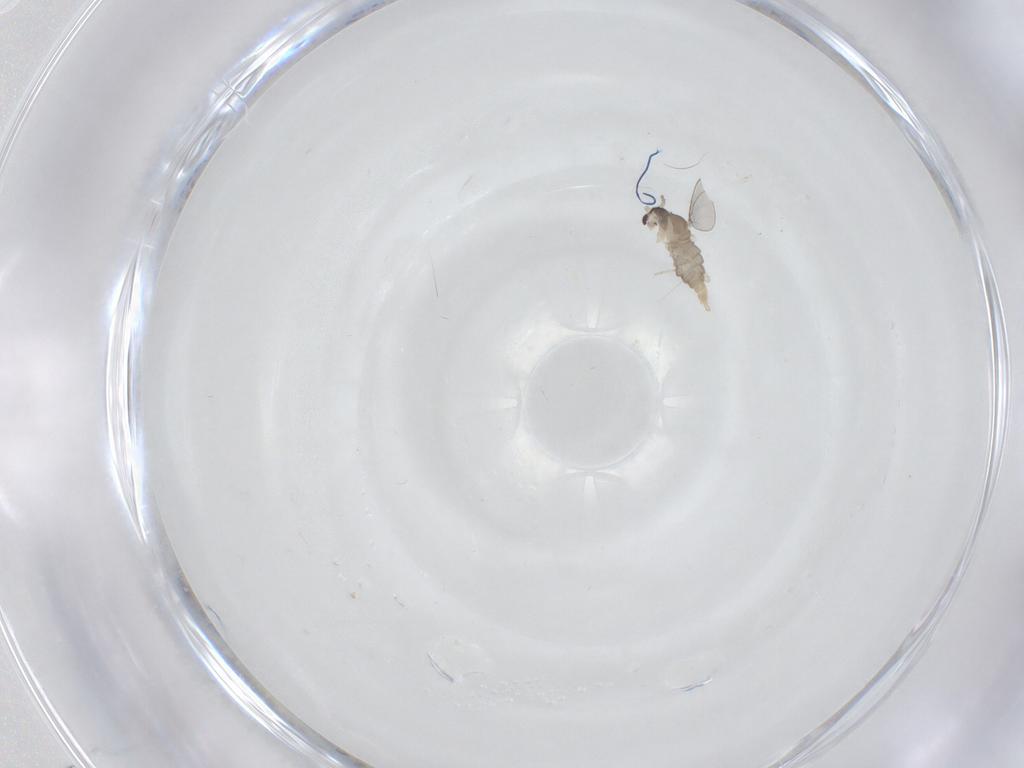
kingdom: Animalia
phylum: Arthropoda
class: Insecta
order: Diptera
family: Cecidomyiidae
